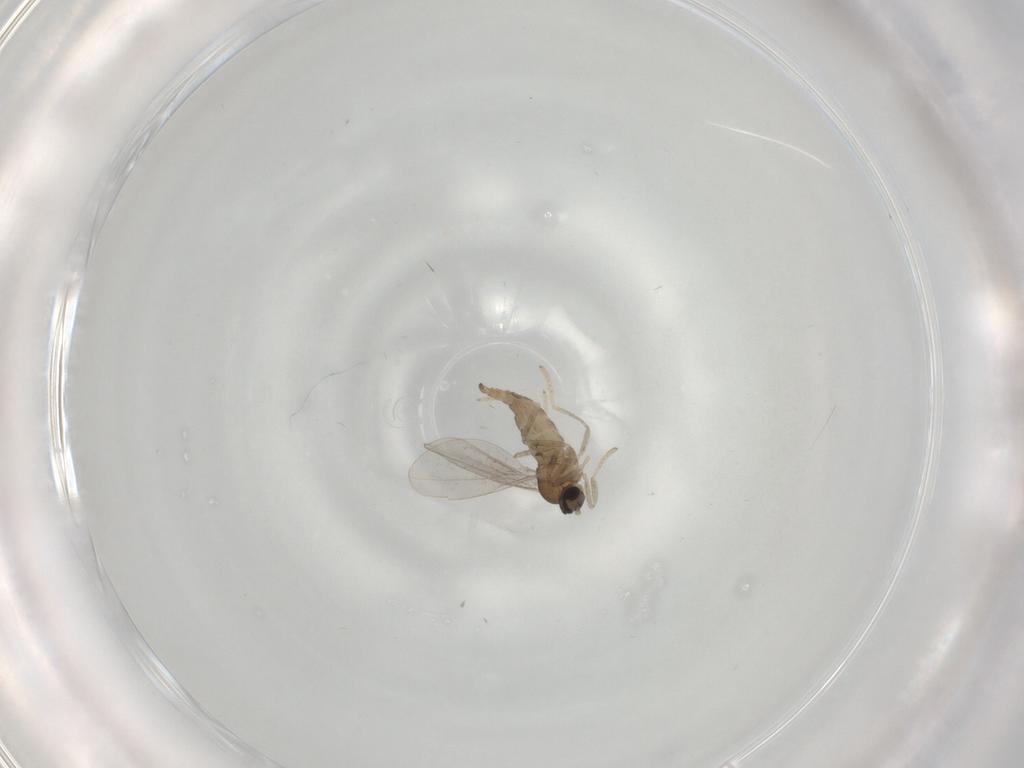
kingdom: Animalia
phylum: Arthropoda
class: Insecta
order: Diptera
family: Cecidomyiidae
